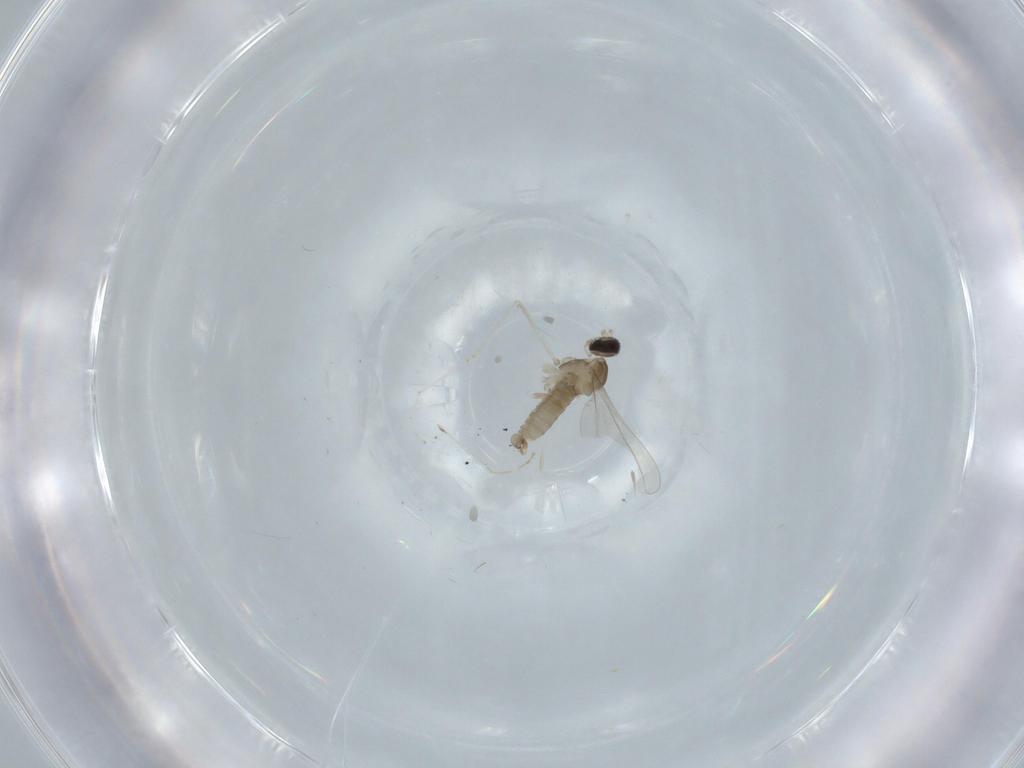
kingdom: Animalia
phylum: Arthropoda
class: Insecta
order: Diptera
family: Cecidomyiidae
